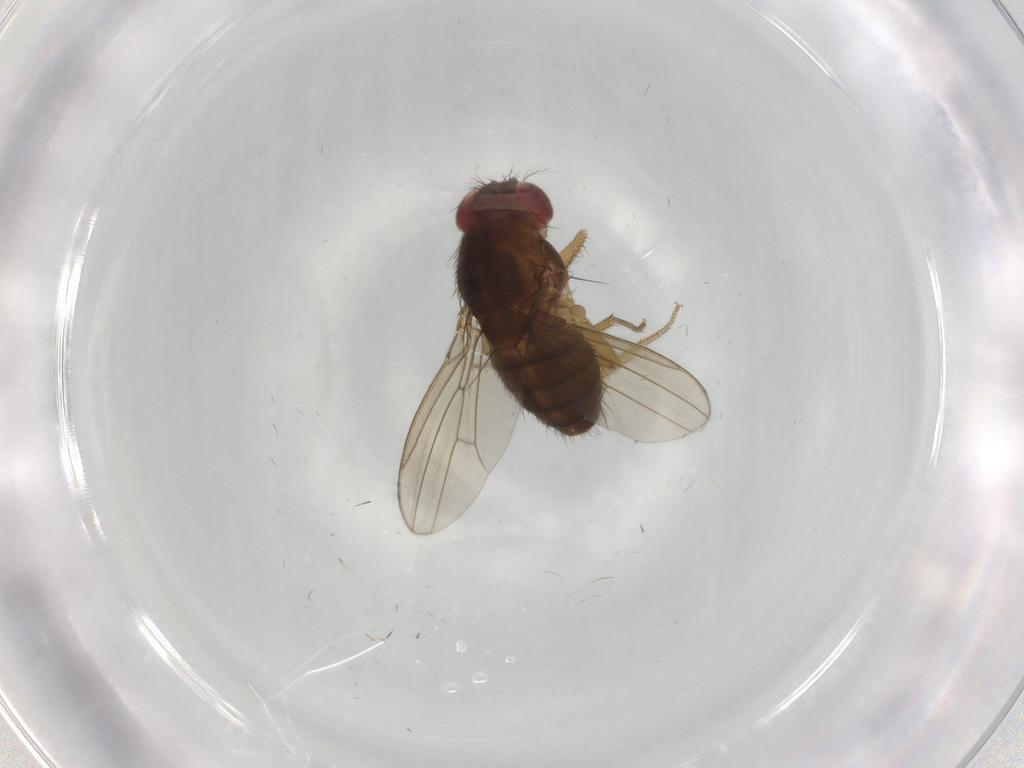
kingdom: Animalia
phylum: Arthropoda
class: Insecta
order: Diptera
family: Drosophilidae
